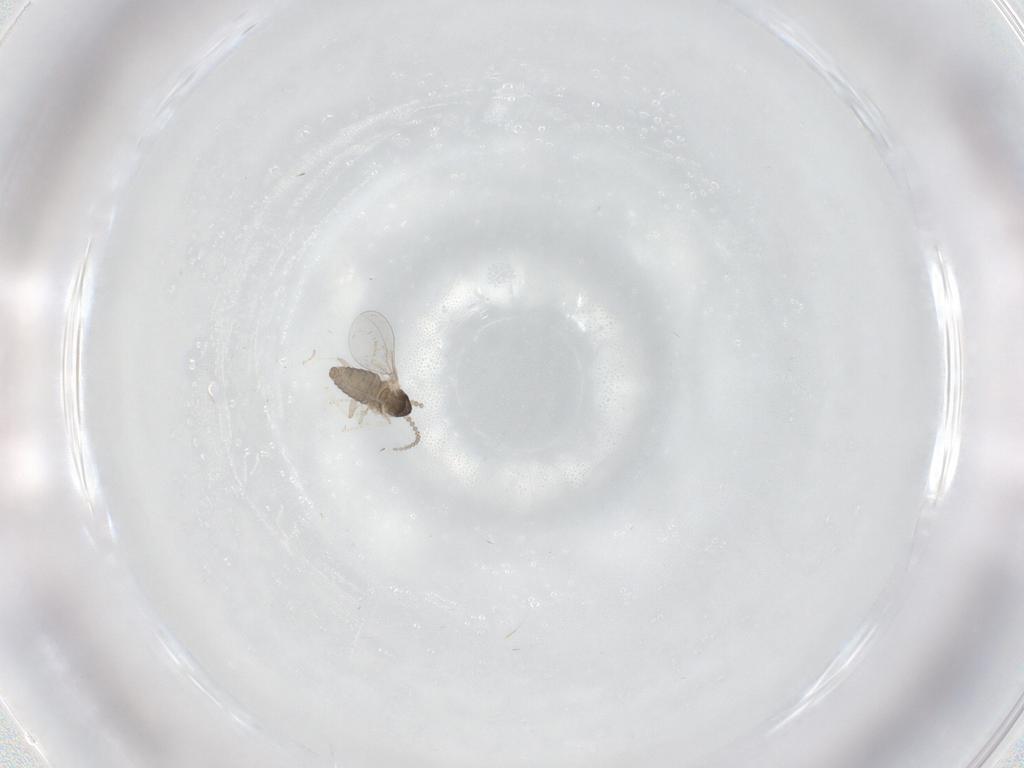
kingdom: Animalia
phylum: Arthropoda
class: Insecta
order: Diptera
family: Cecidomyiidae
